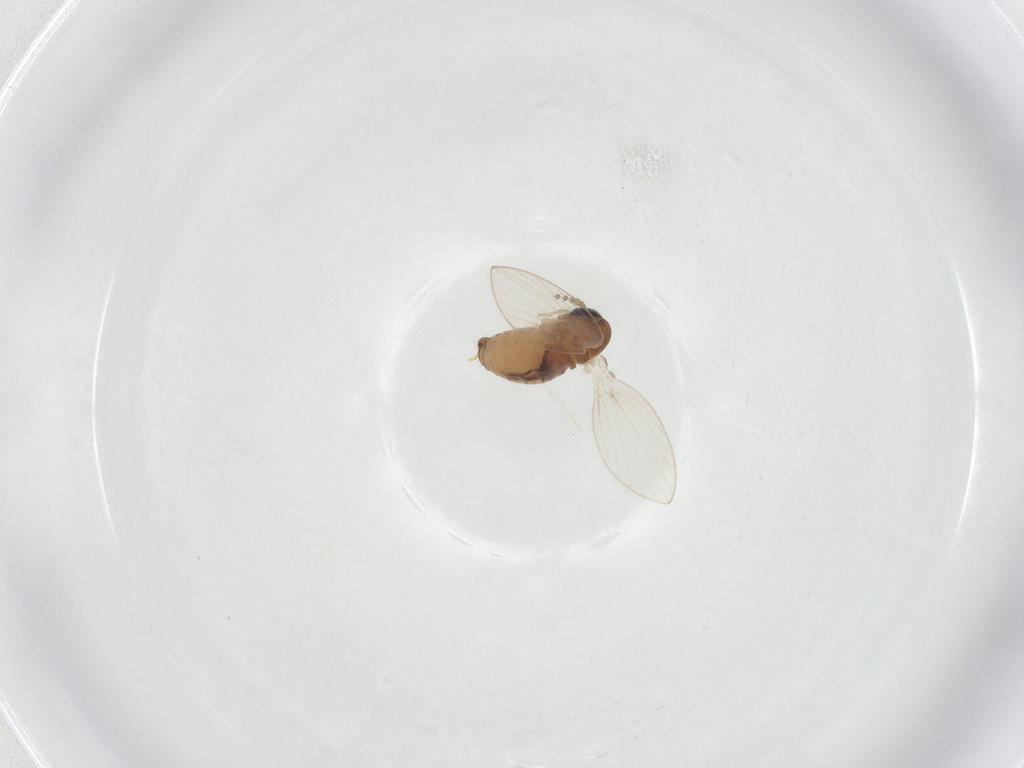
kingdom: Animalia
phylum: Arthropoda
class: Insecta
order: Diptera
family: Psychodidae
